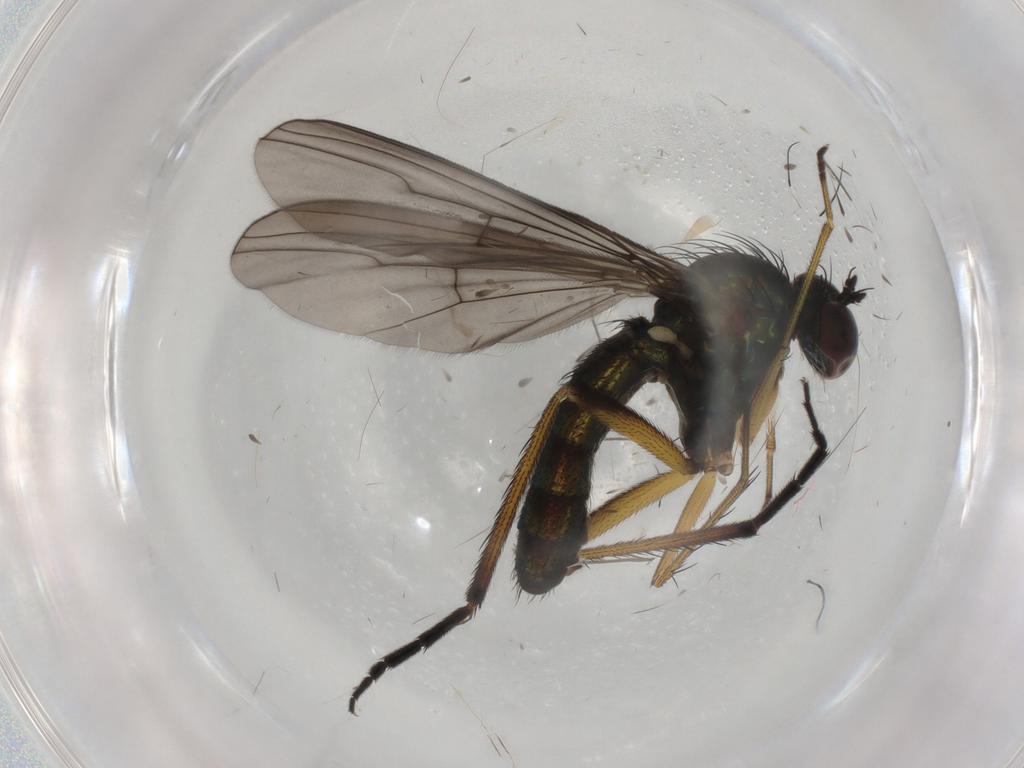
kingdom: Animalia
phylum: Arthropoda
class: Insecta
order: Diptera
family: Dolichopodidae
